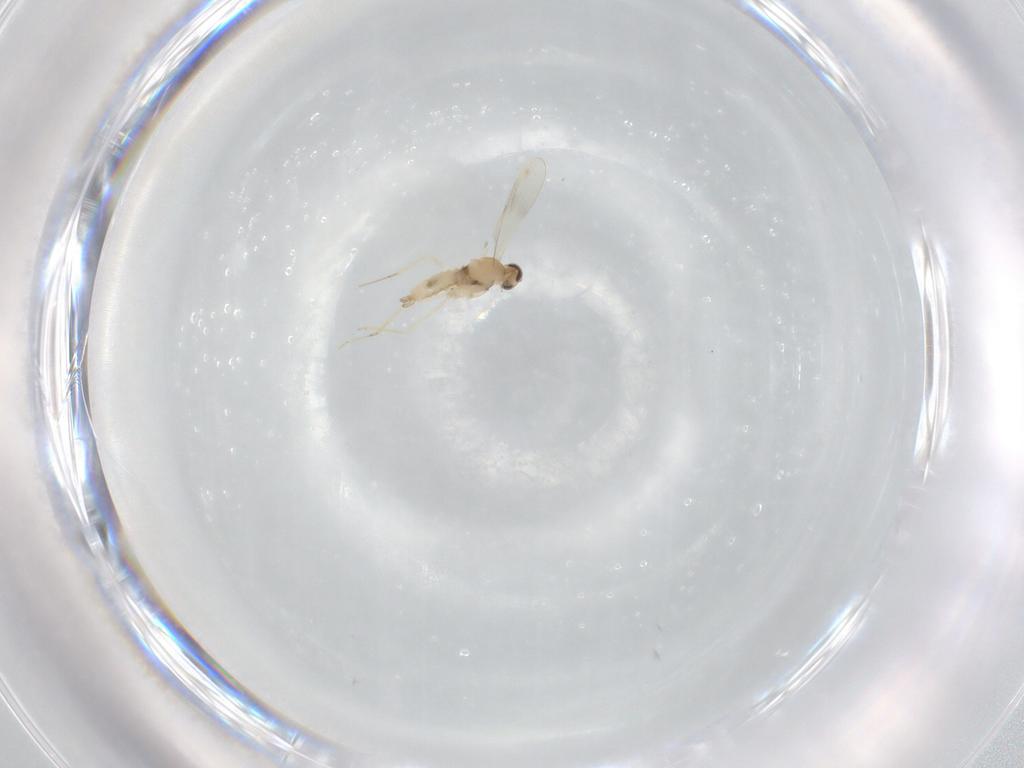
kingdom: Animalia
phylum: Arthropoda
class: Insecta
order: Diptera
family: Cecidomyiidae
